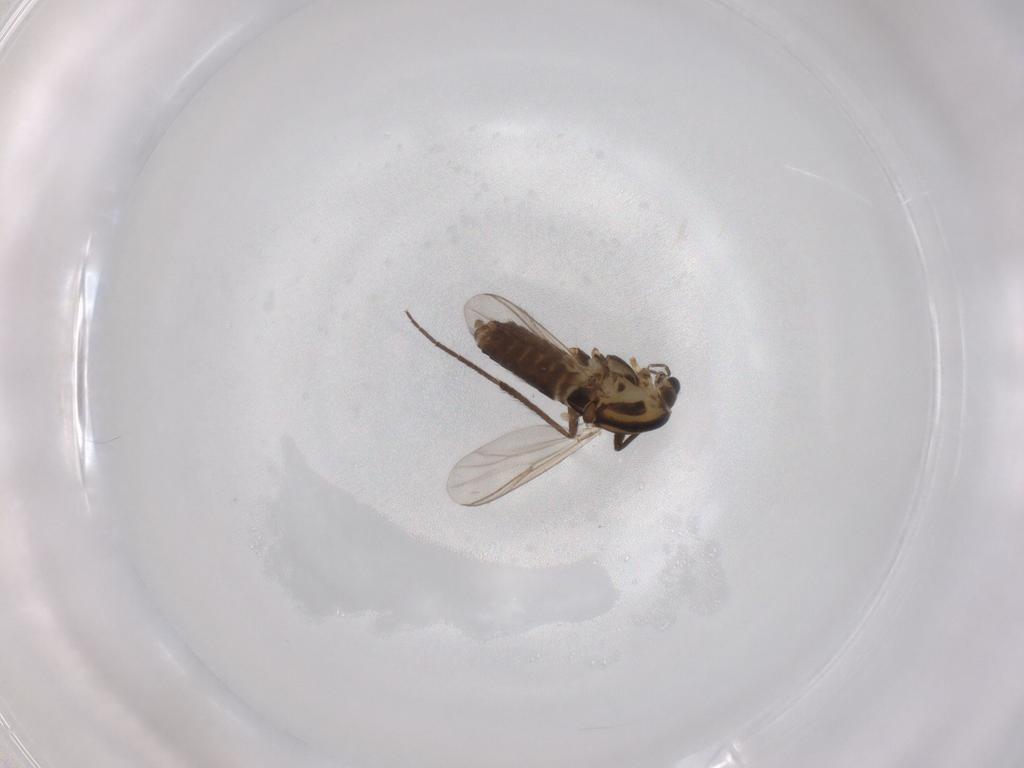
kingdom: Animalia
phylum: Arthropoda
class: Insecta
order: Diptera
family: Chironomidae
